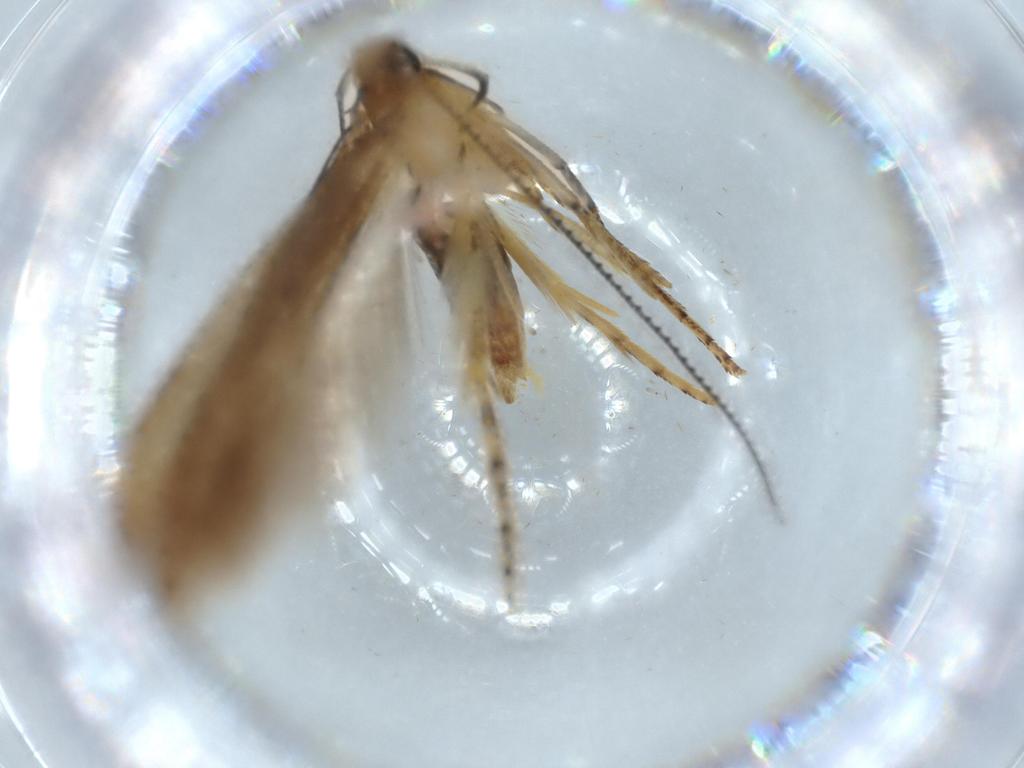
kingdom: Animalia
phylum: Arthropoda
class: Insecta
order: Lepidoptera
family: Heliodinidae
